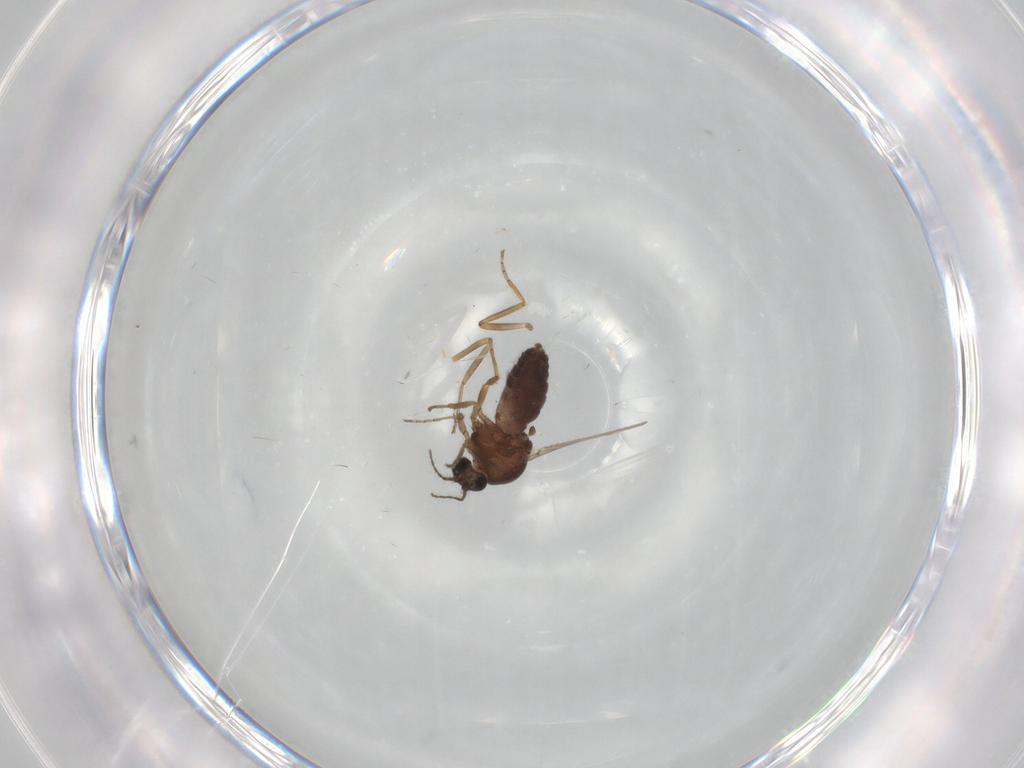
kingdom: Animalia
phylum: Arthropoda
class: Insecta
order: Diptera
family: Ceratopogonidae
